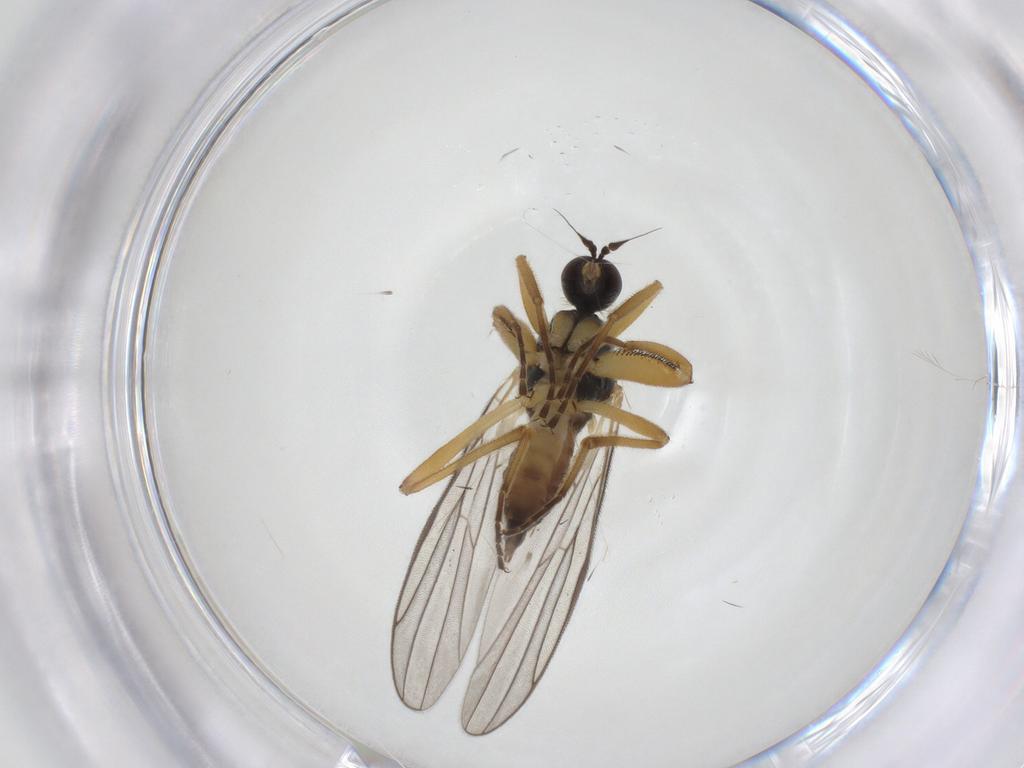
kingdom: Animalia
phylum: Arthropoda
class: Insecta
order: Diptera
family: Hybotidae
